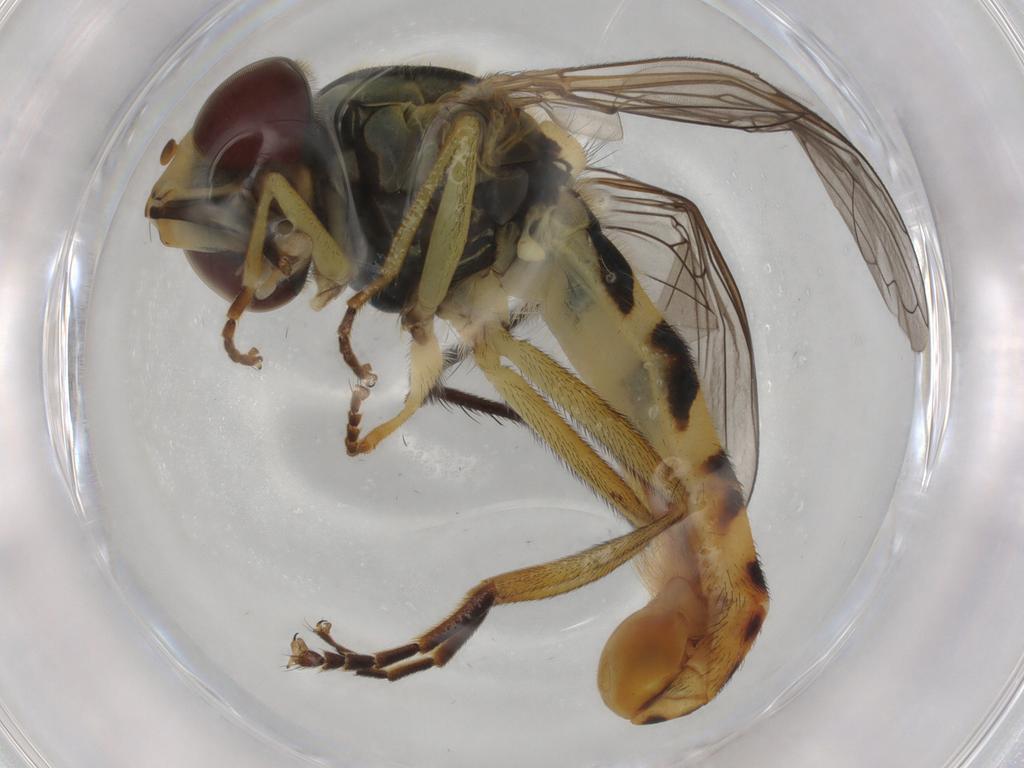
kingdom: Animalia
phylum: Arthropoda
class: Insecta
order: Diptera
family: Syrphidae
